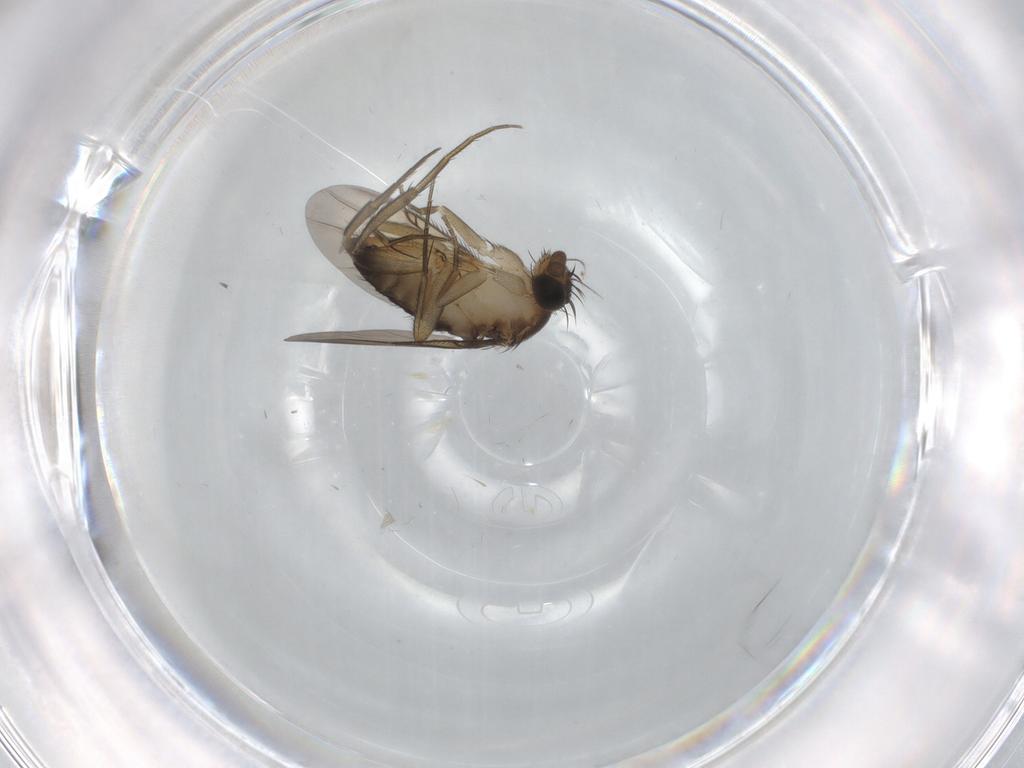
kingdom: Animalia
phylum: Arthropoda
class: Insecta
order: Diptera
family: Sciaridae
